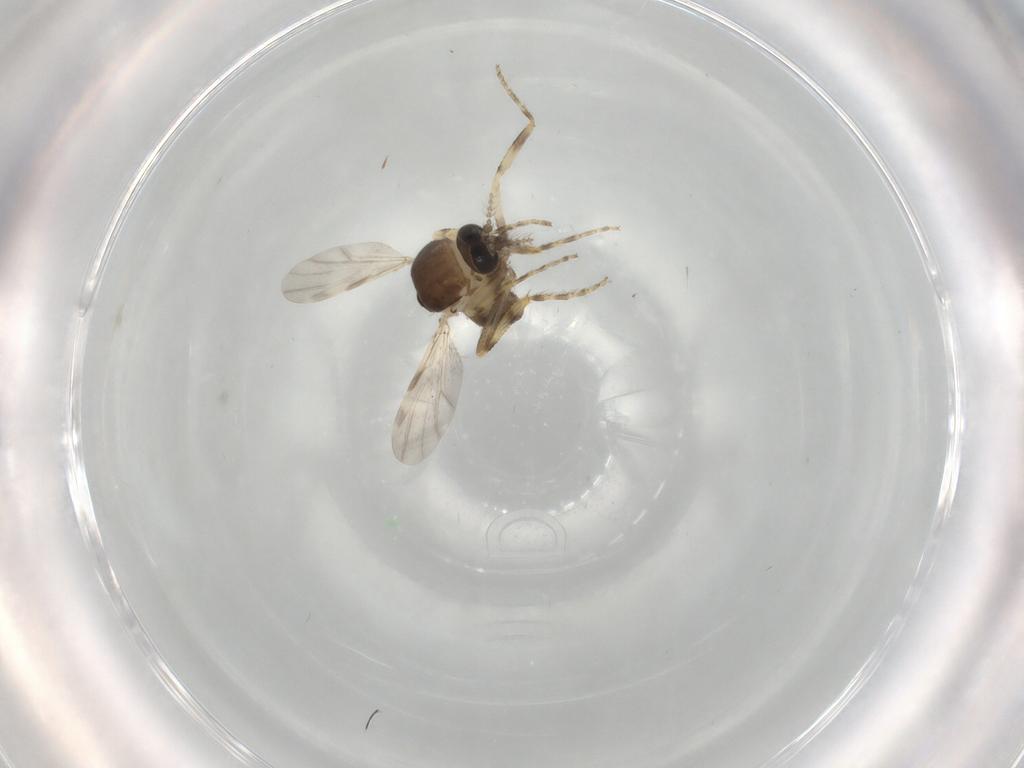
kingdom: Animalia
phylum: Arthropoda
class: Insecta
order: Diptera
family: Ceratopogonidae
